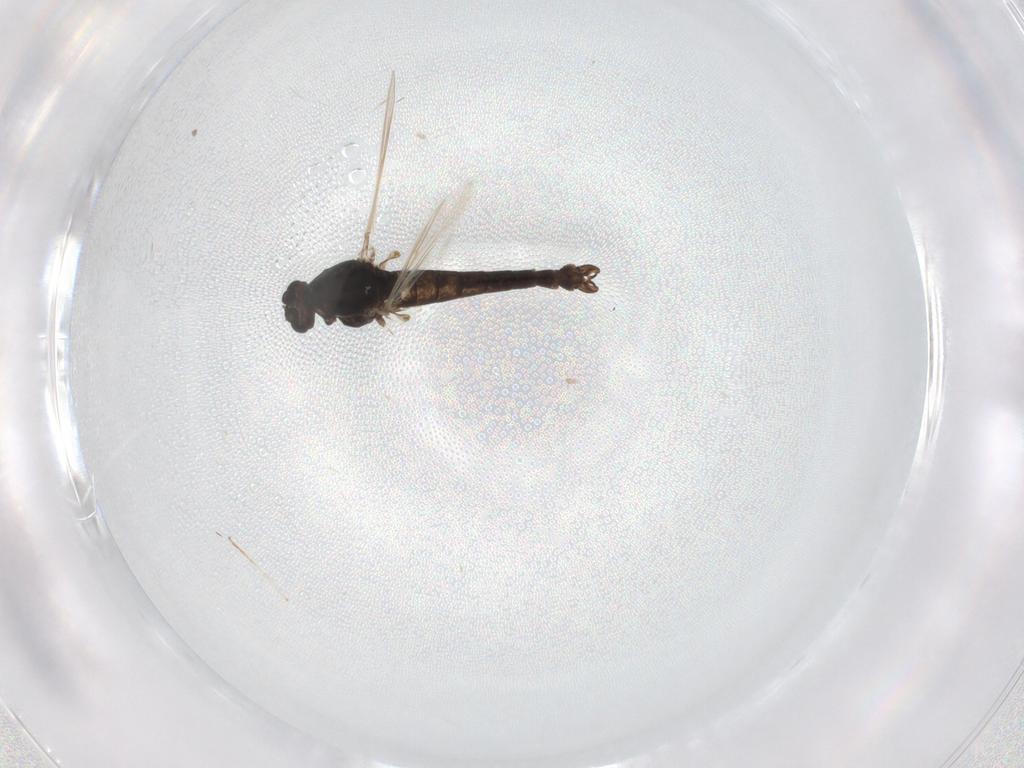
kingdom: Animalia
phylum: Arthropoda
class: Insecta
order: Diptera
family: Chironomidae
